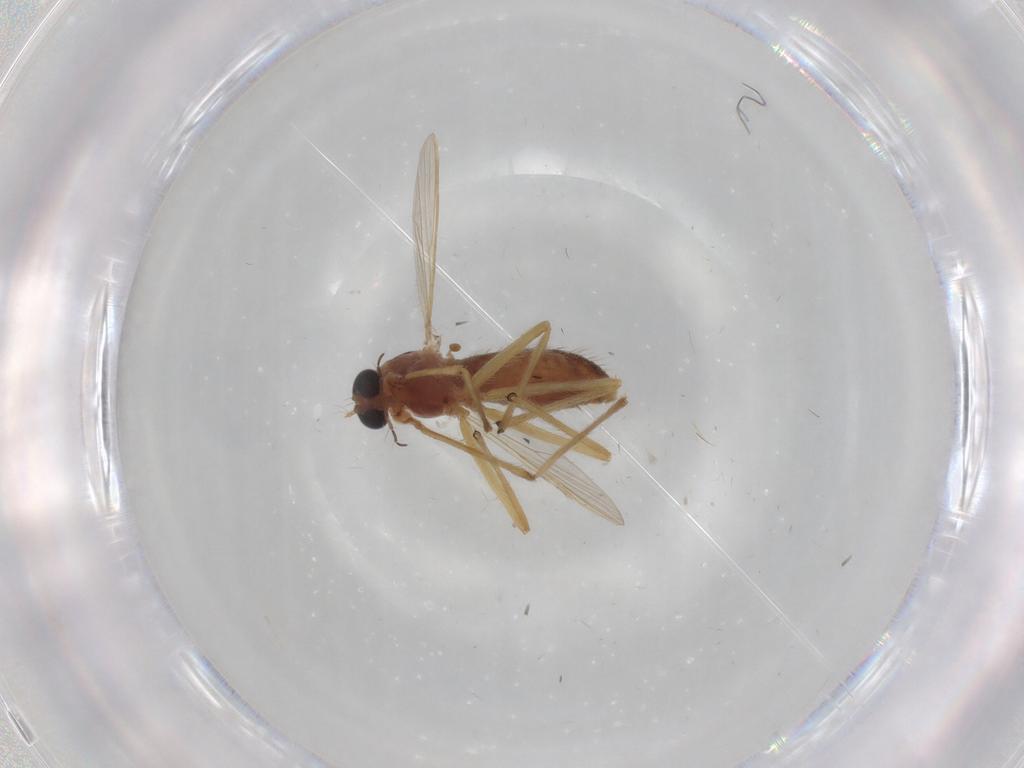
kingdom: Animalia
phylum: Arthropoda
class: Insecta
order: Diptera
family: Chironomidae
